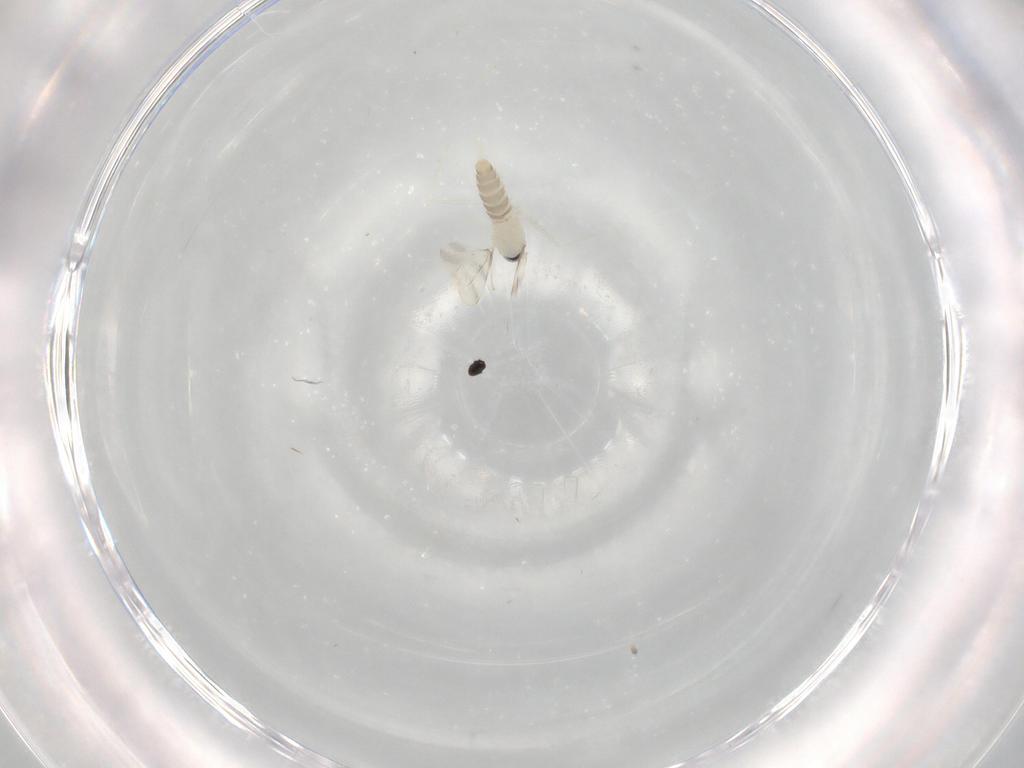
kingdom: Animalia
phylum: Arthropoda
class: Insecta
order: Diptera
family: Cecidomyiidae
